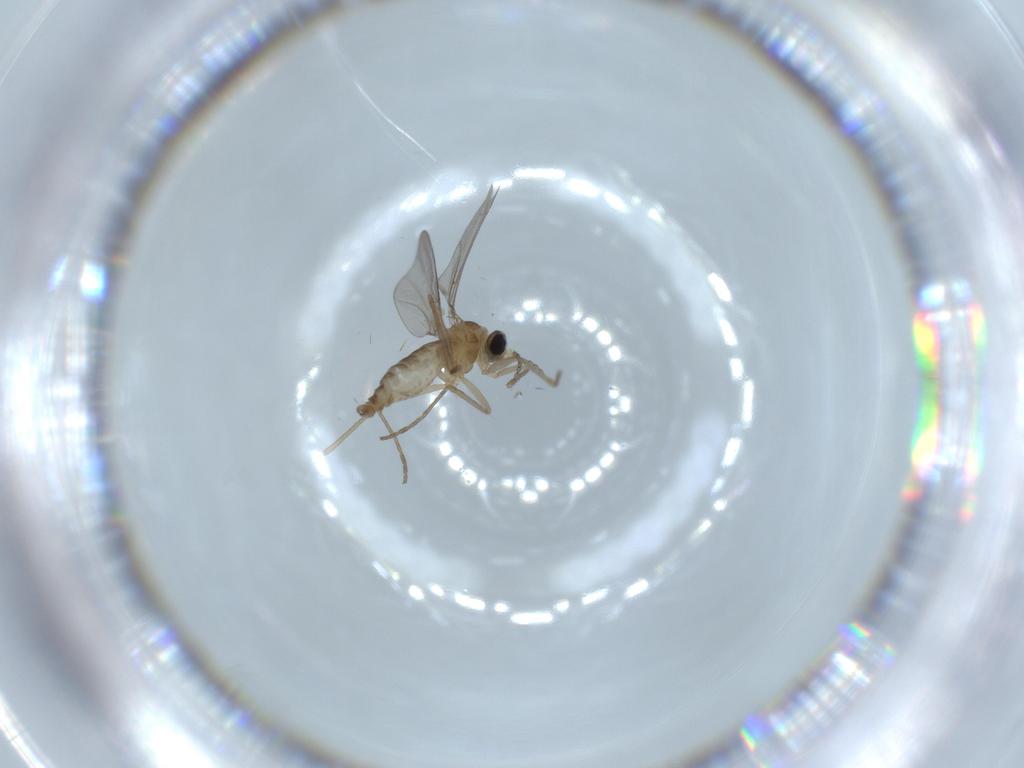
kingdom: Animalia
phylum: Arthropoda
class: Insecta
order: Diptera
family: Cecidomyiidae
